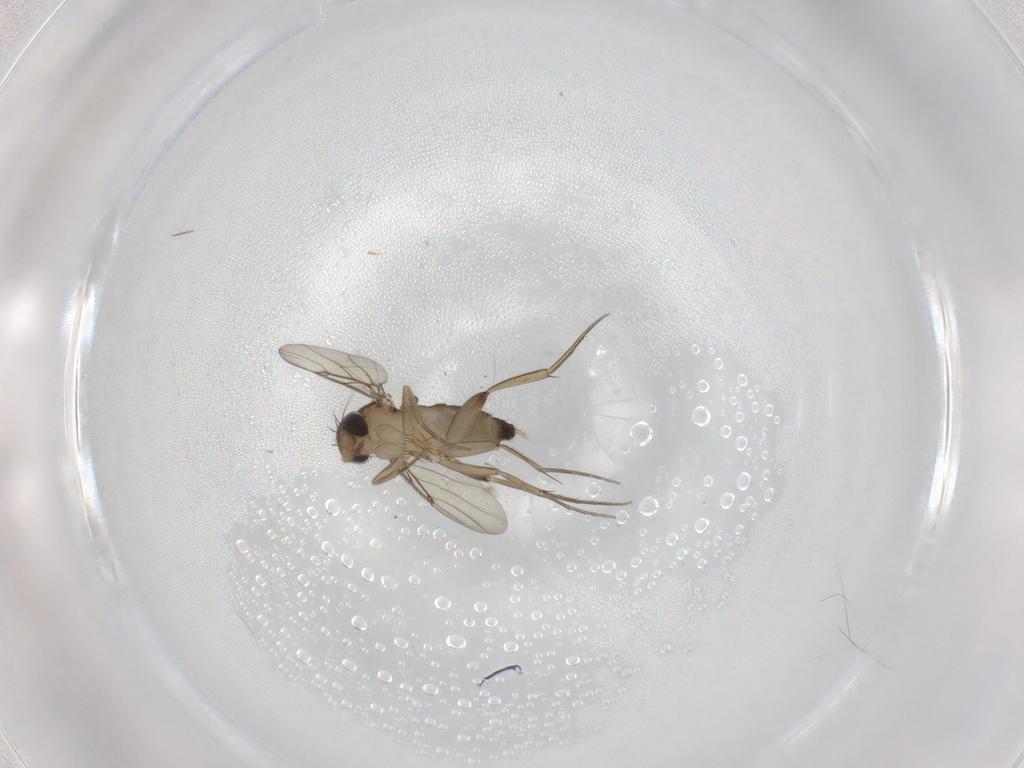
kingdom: Animalia
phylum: Arthropoda
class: Insecta
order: Diptera
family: Phoridae
